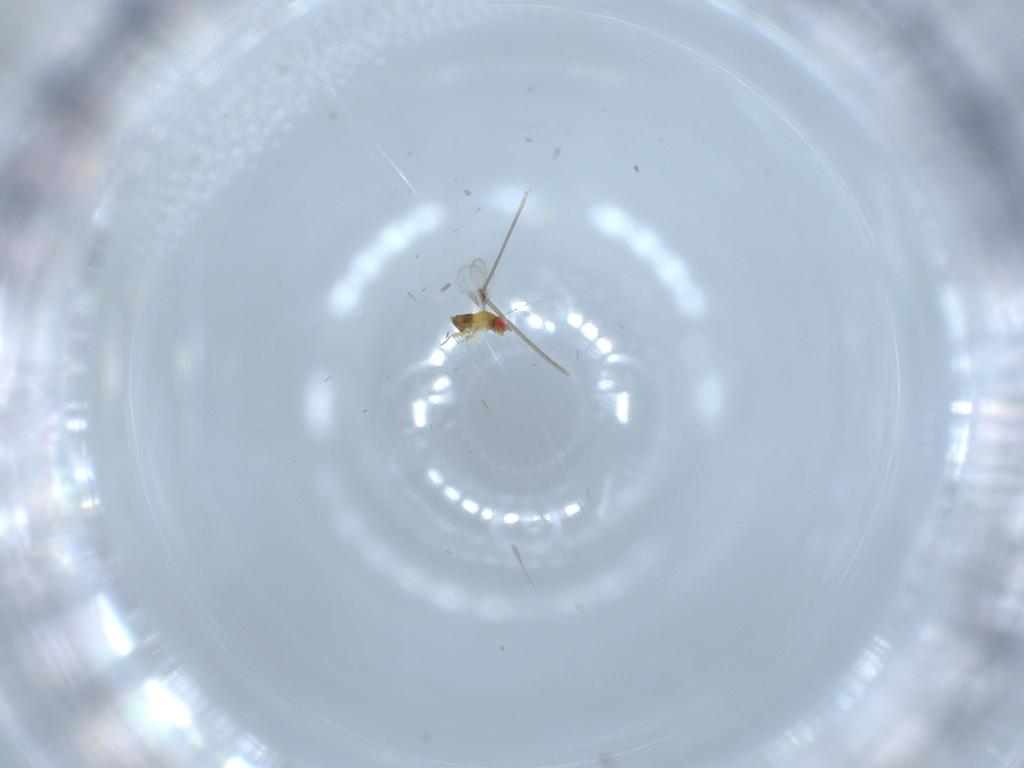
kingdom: Animalia
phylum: Arthropoda
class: Insecta
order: Hymenoptera
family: Trichogrammatidae
